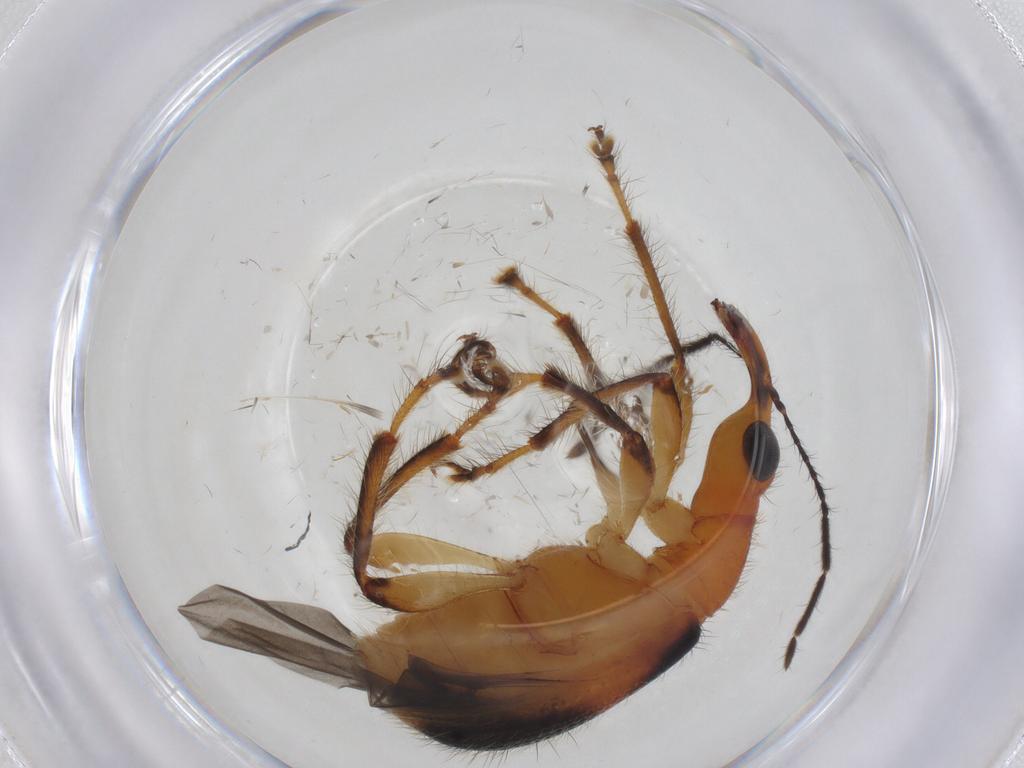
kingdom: Animalia
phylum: Arthropoda
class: Insecta
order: Coleoptera
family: Attelabidae
